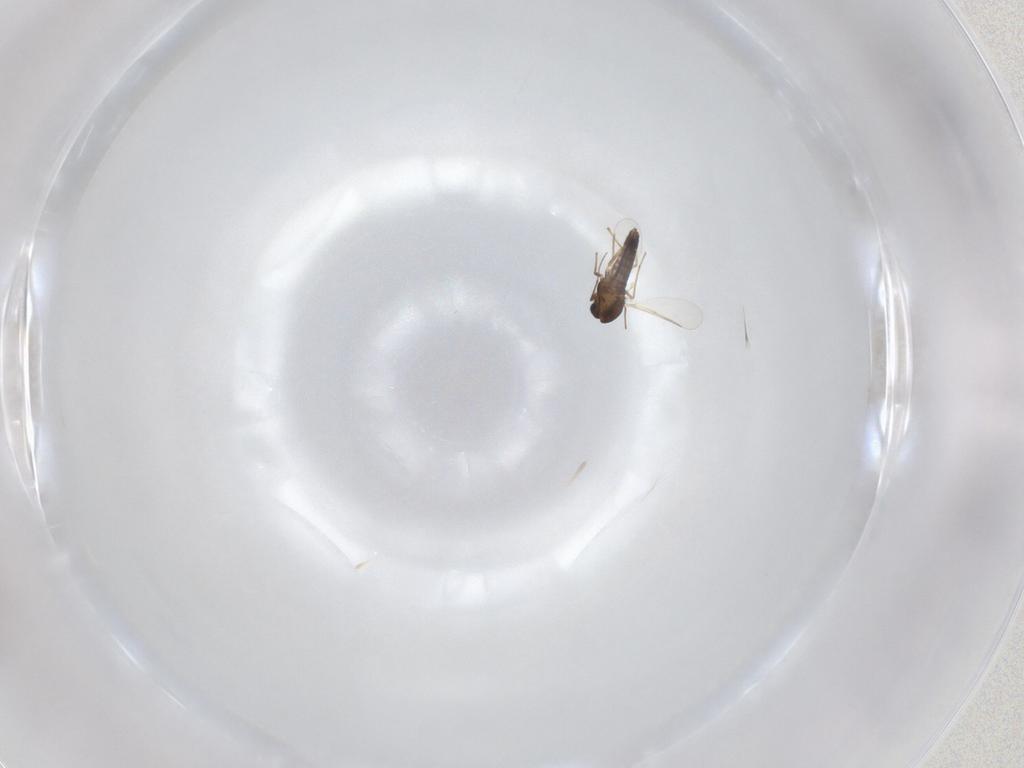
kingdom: Animalia
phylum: Arthropoda
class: Insecta
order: Diptera
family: Chironomidae
